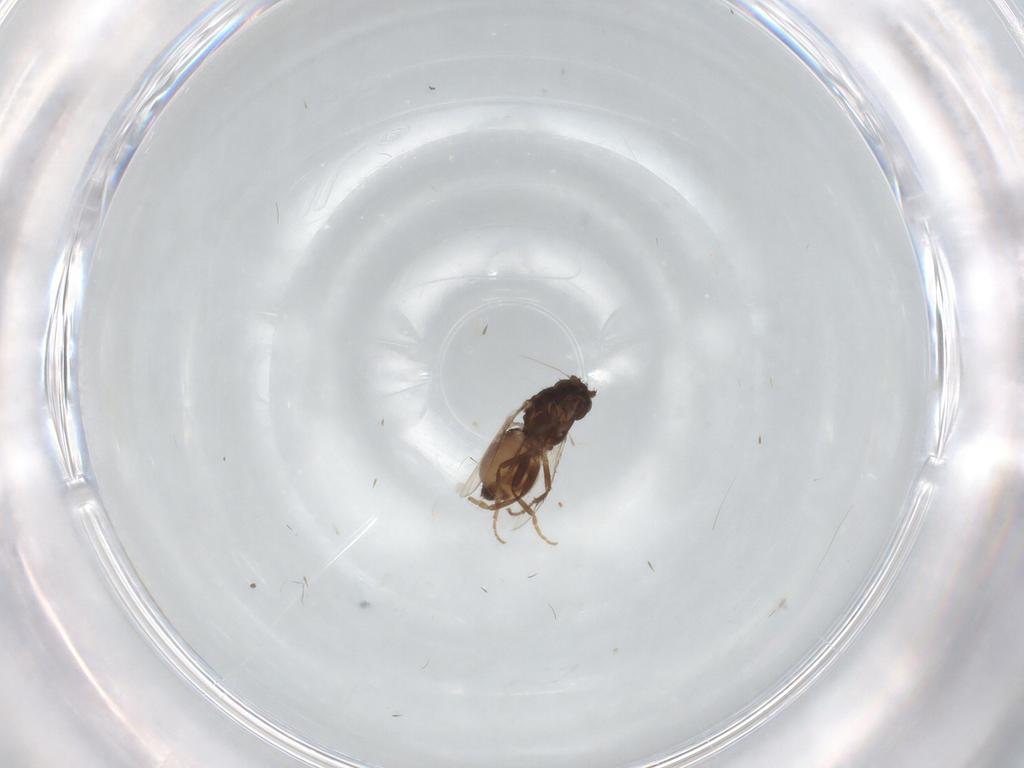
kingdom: Animalia
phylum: Arthropoda
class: Insecta
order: Diptera
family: Sphaeroceridae
